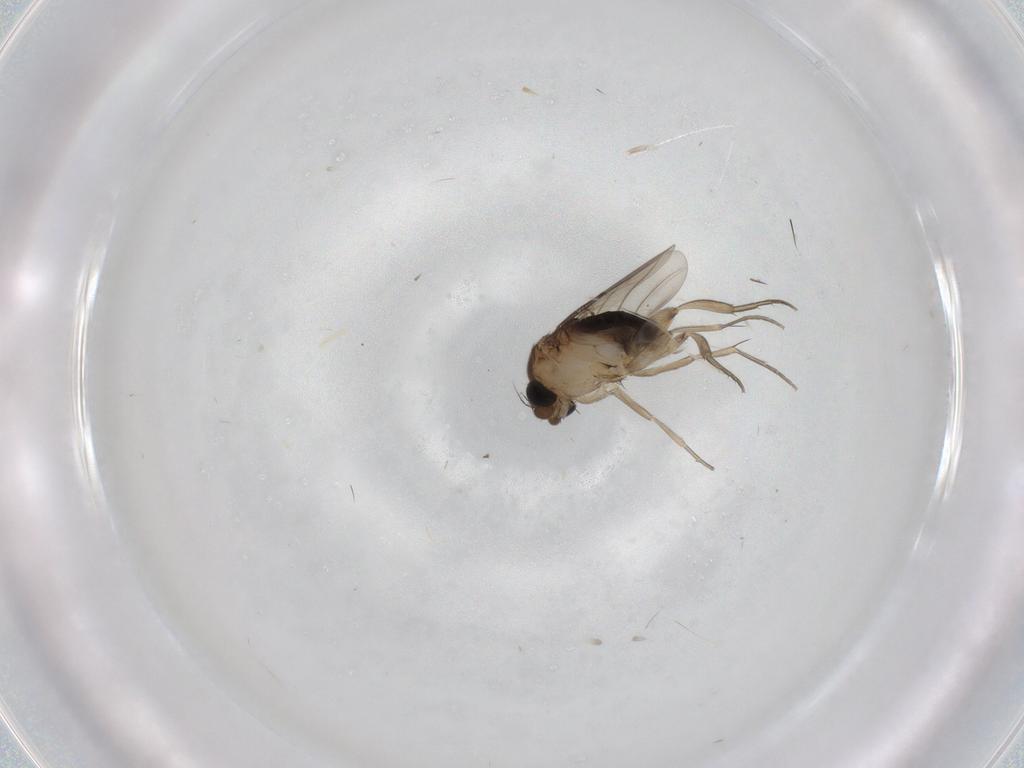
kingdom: Animalia
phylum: Arthropoda
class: Insecta
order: Diptera
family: Phoridae
